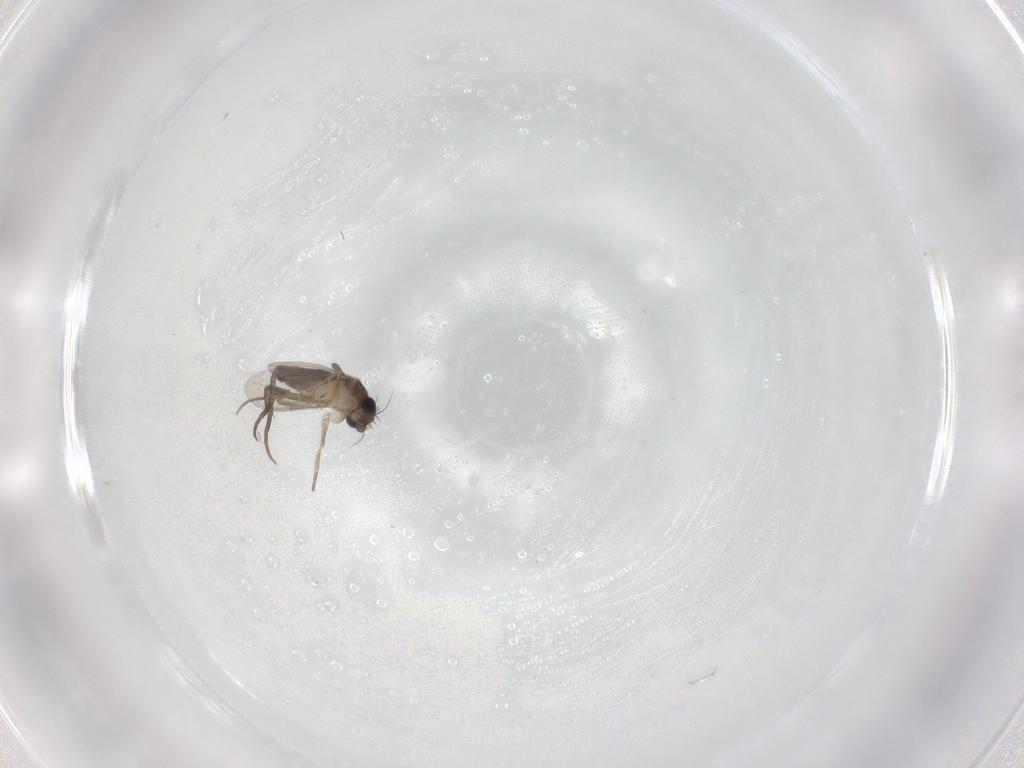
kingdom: Animalia
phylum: Arthropoda
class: Insecta
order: Diptera
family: Psychodidae
